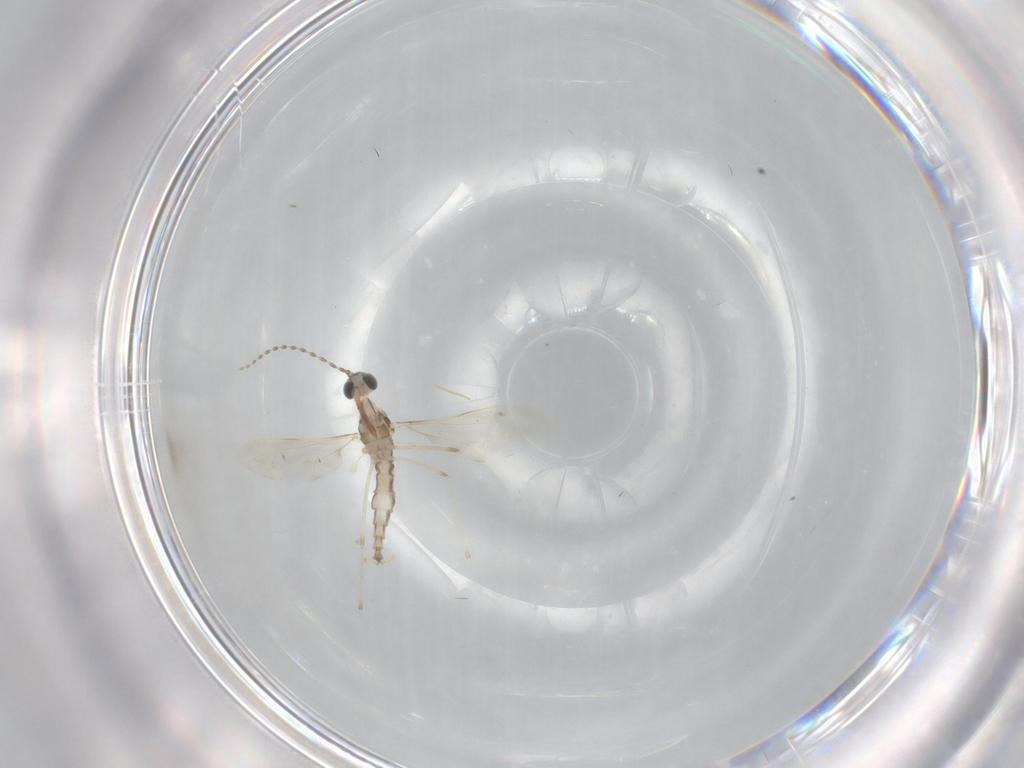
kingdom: Animalia
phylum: Arthropoda
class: Insecta
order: Diptera
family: Cecidomyiidae
